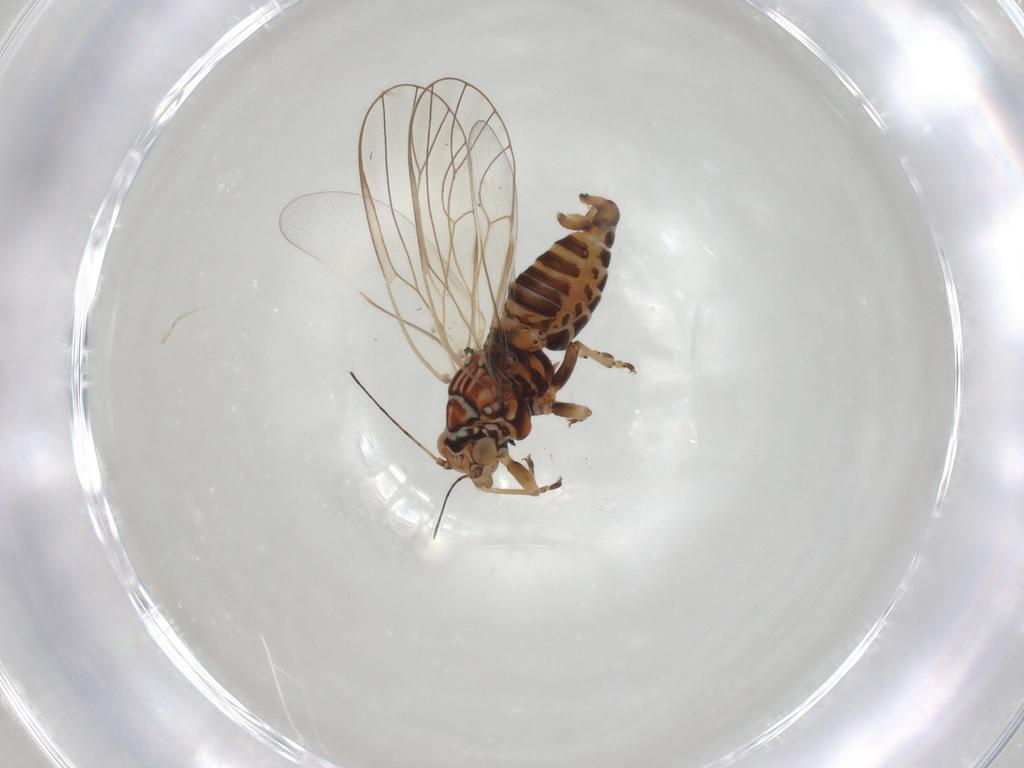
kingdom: Animalia
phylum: Arthropoda
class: Insecta
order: Hemiptera
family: Psyllidae
